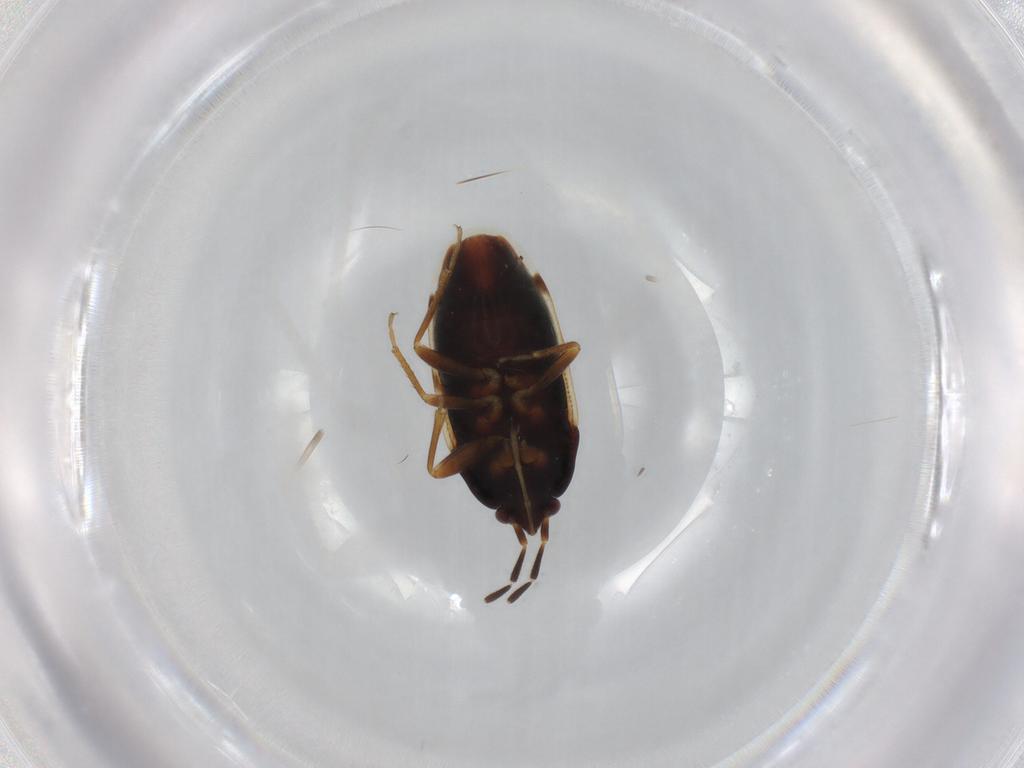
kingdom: Animalia
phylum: Arthropoda
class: Insecta
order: Hemiptera
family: Rhyparochromidae
